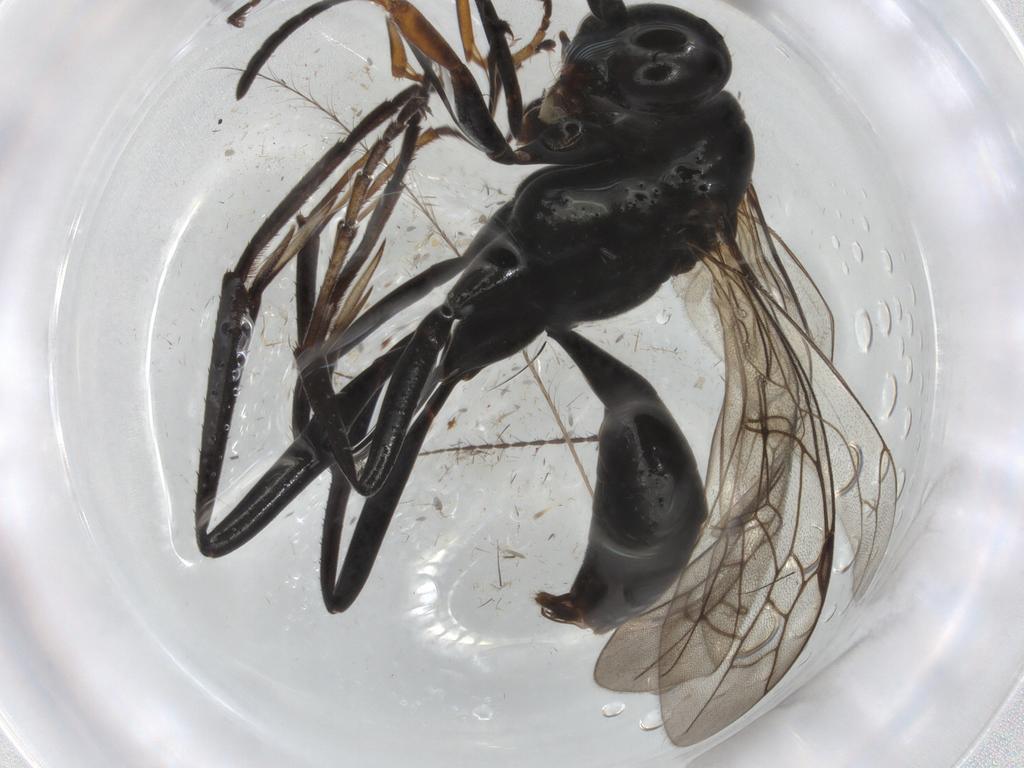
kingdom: Animalia
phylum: Arthropoda
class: Insecta
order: Hymenoptera
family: Pompilidae
